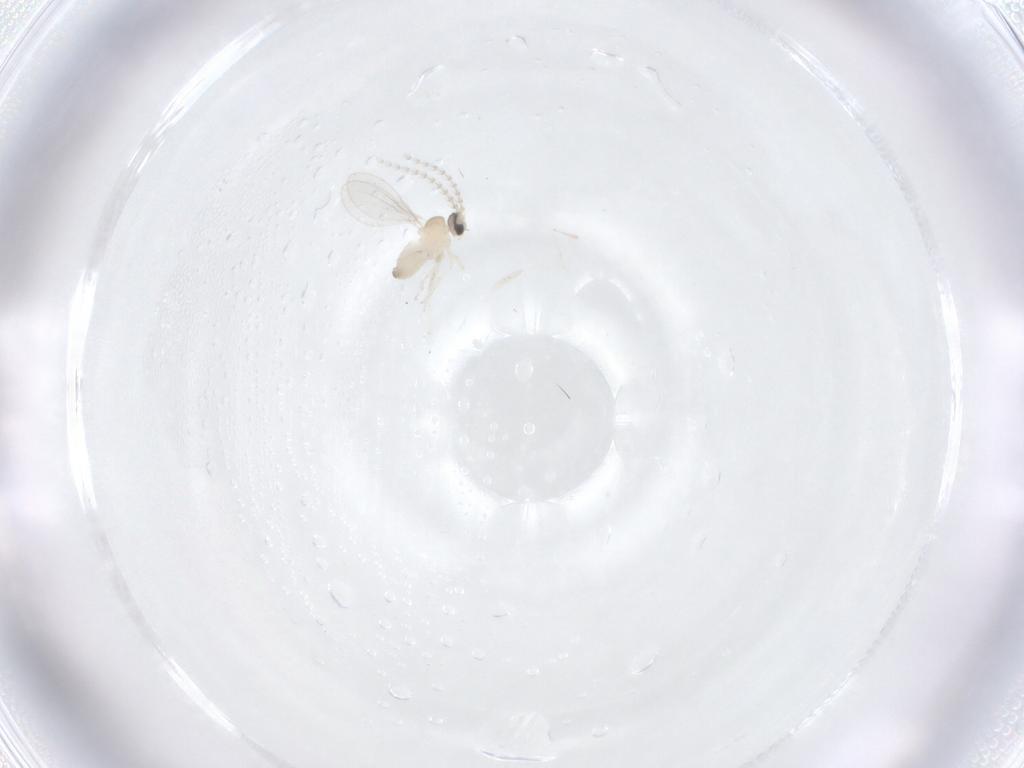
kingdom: Animalia
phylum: Arthropoda
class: Insecta
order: Diptera
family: Cecidomyiidae
